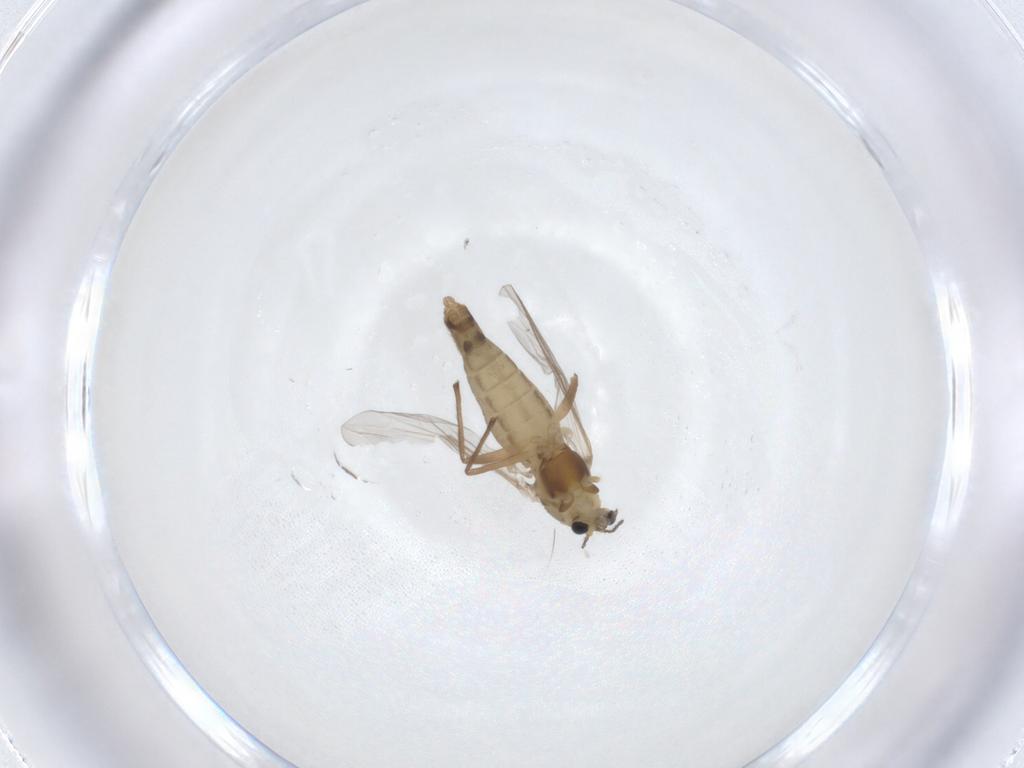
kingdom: Animalia
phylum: Arthropoda
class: Insecta
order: Diptera
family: Chironomidae
